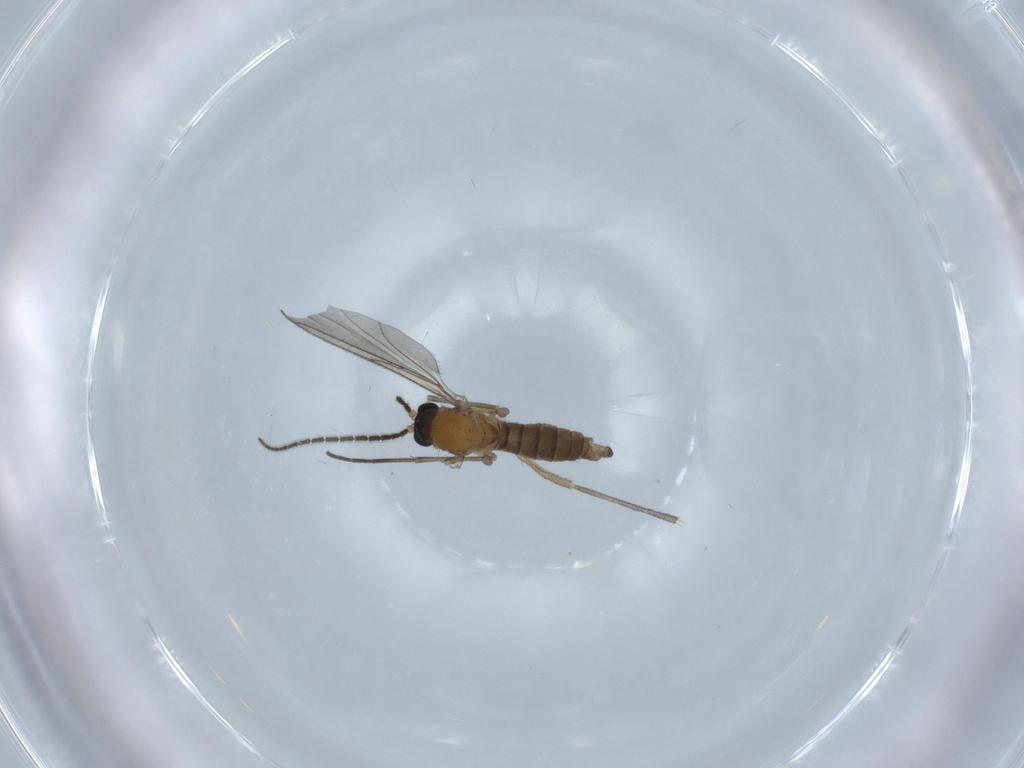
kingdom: Animalia
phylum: Arthropoda
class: Insecta
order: Diptera
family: Sciaridae
